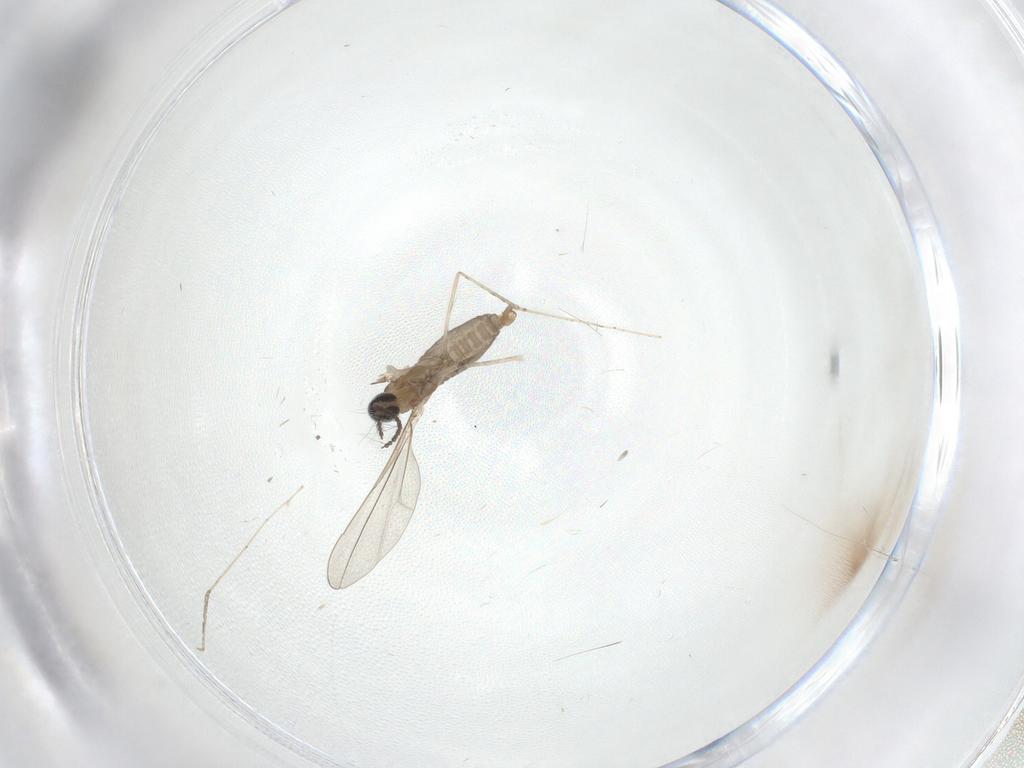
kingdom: Animalia
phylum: Arthropoda
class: Insecta
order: Diptera
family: Cecidomyiidae
